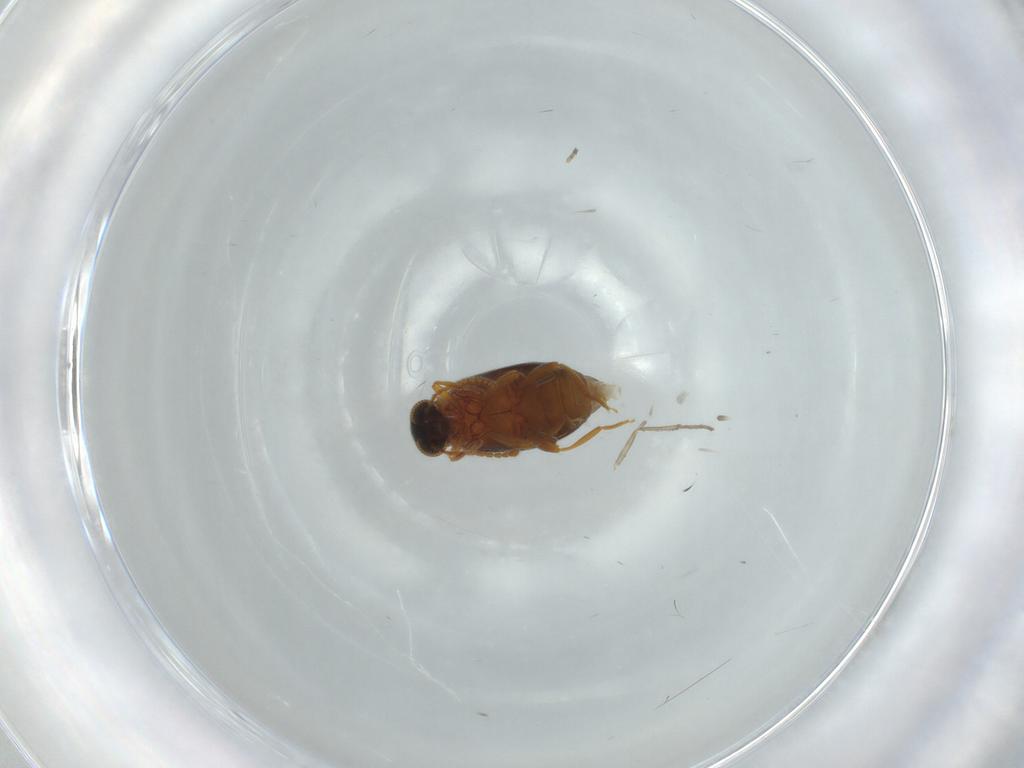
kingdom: Animalia
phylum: Arthropoda
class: Insecta
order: Coleoptera
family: Aderidae
